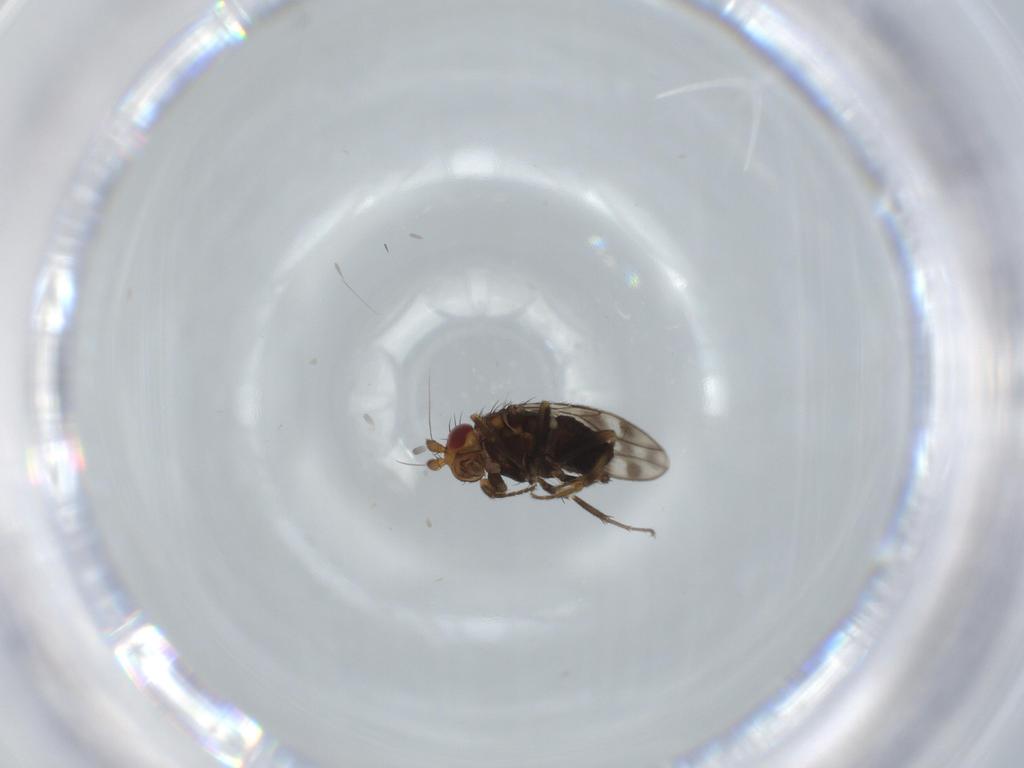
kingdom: Animalia
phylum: Arthropoda
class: Insecta
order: Diptera
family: Sphaeroceridae
